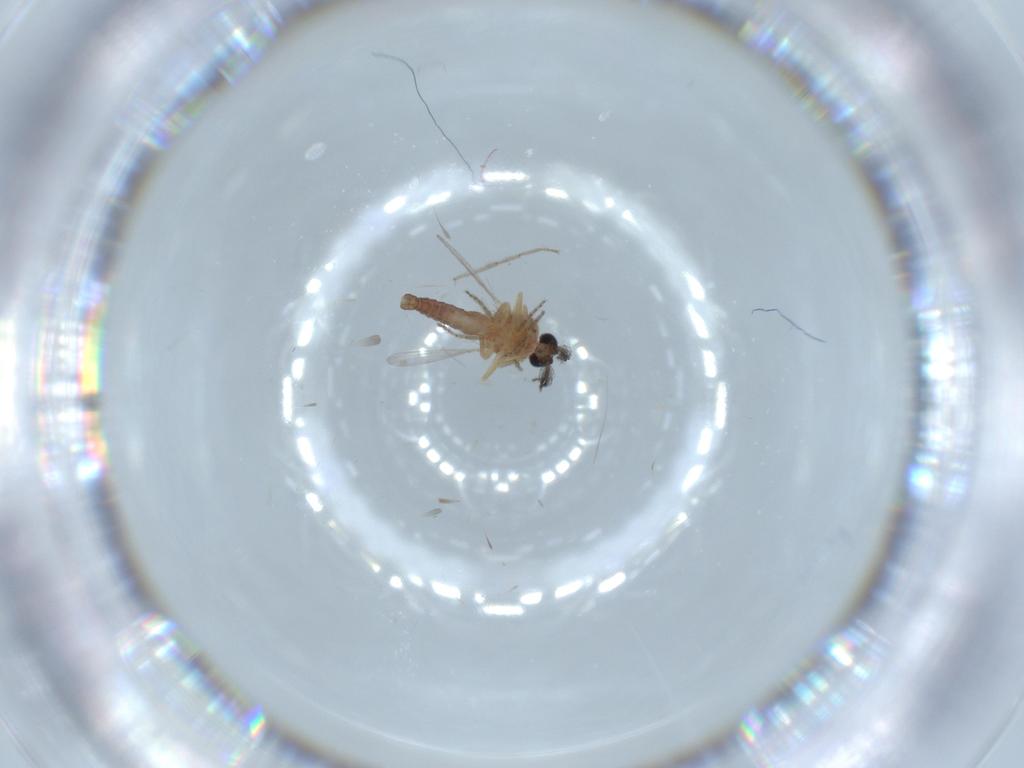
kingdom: Animalia
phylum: Arthropoda
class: Insecta
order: Diptera
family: Ceratopogonidae
